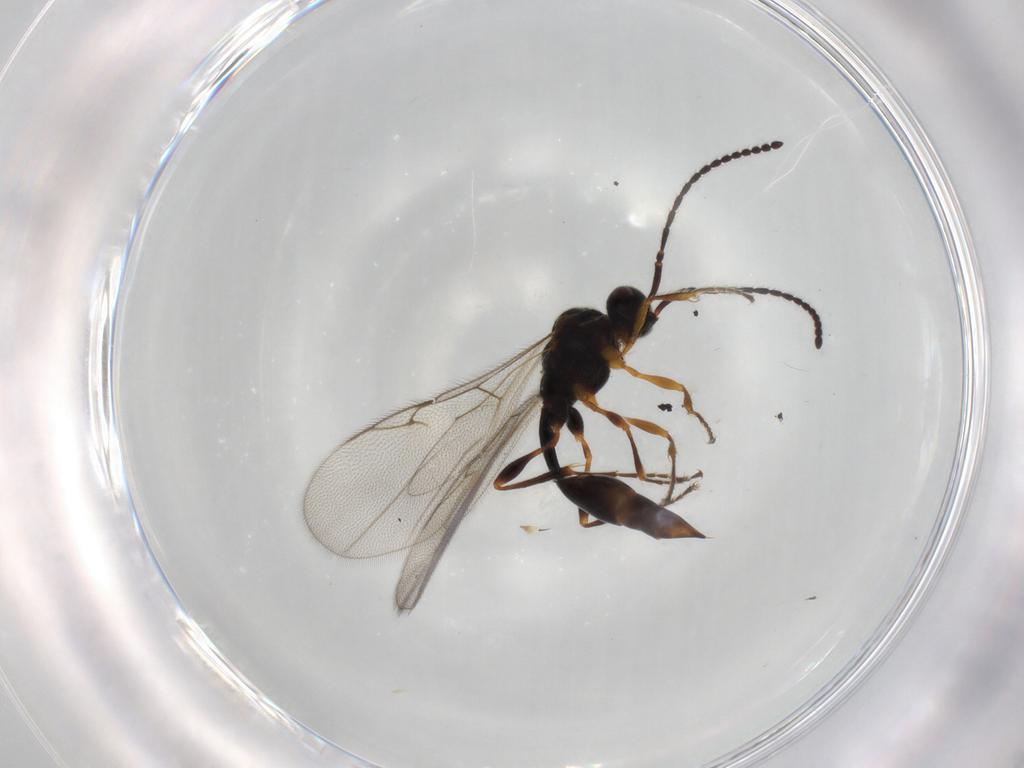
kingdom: Animalia
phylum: Arthropoda
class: Insecta
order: Hymenoptera
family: Diapriidae
